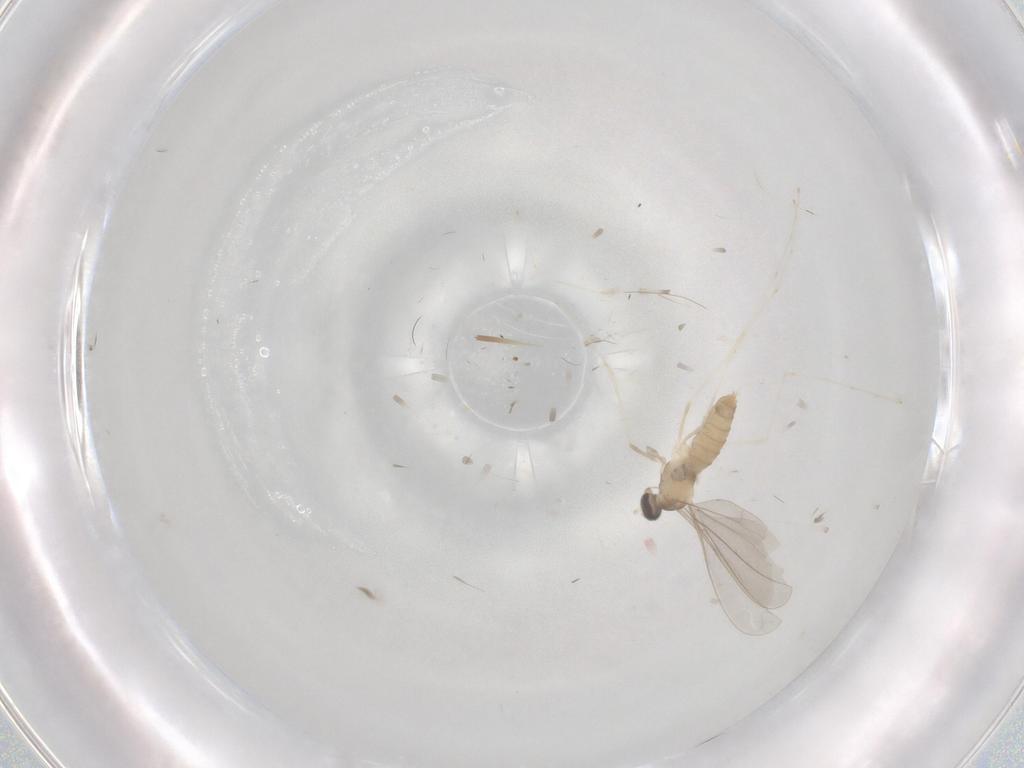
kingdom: Animalia
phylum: Arthropoda
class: Insecta
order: Diptera
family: Cecidomyiidae
